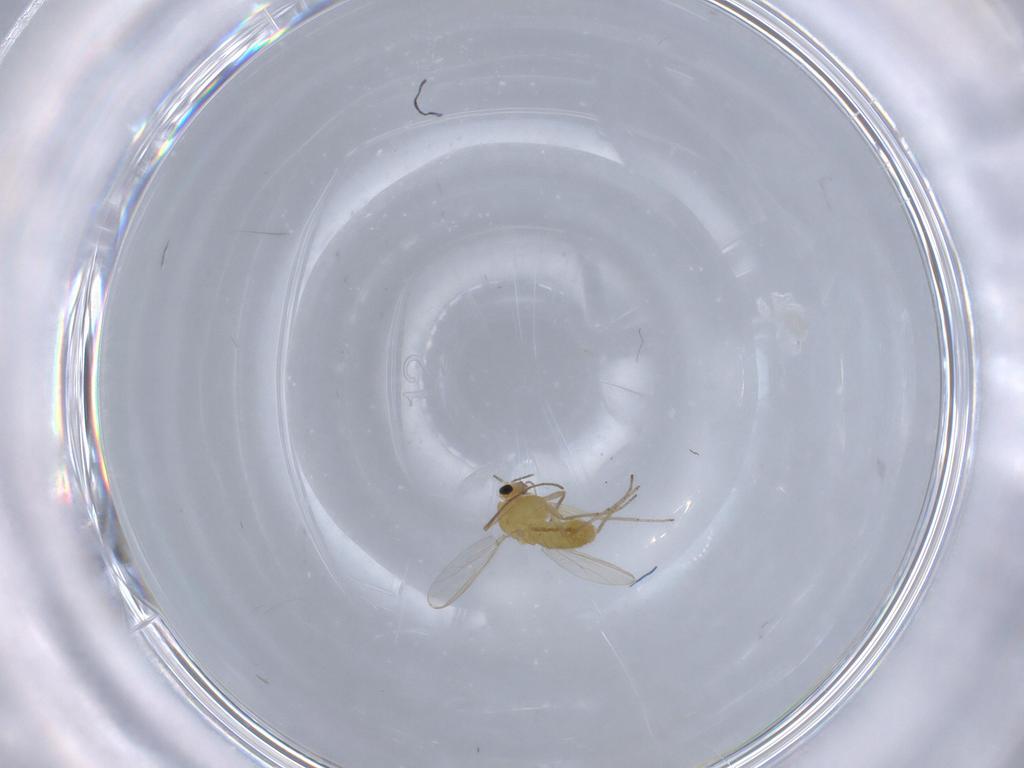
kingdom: Animalia
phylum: Arthropoda
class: Insecta
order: Diptera
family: Chironomidae
